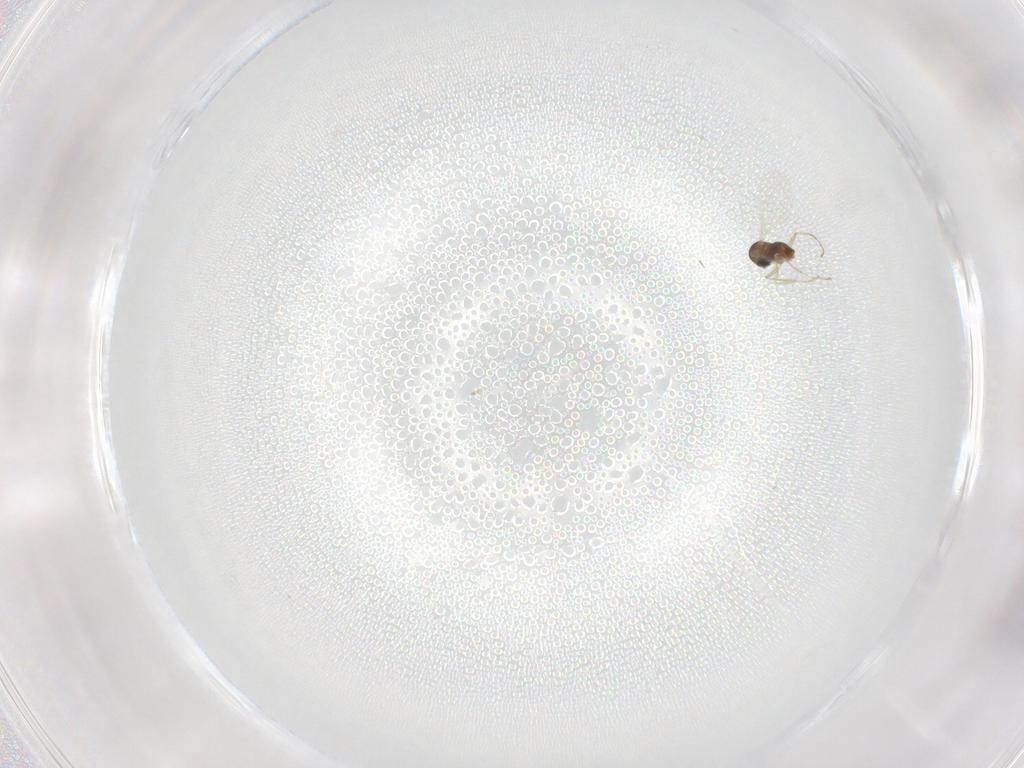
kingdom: Animalia
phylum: Arthropoda
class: Insecta
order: Diptera
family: Cecidomyiidae
